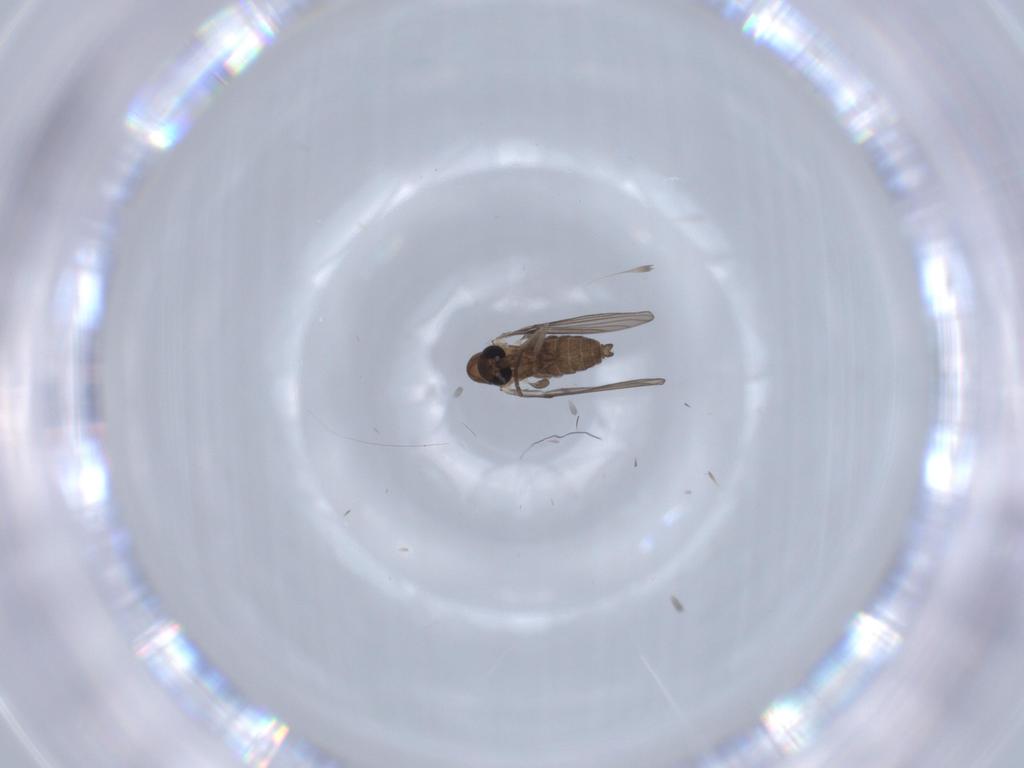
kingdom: Animalia
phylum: Arthropoda
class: Insecta
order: Diptera
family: Psychodidae
